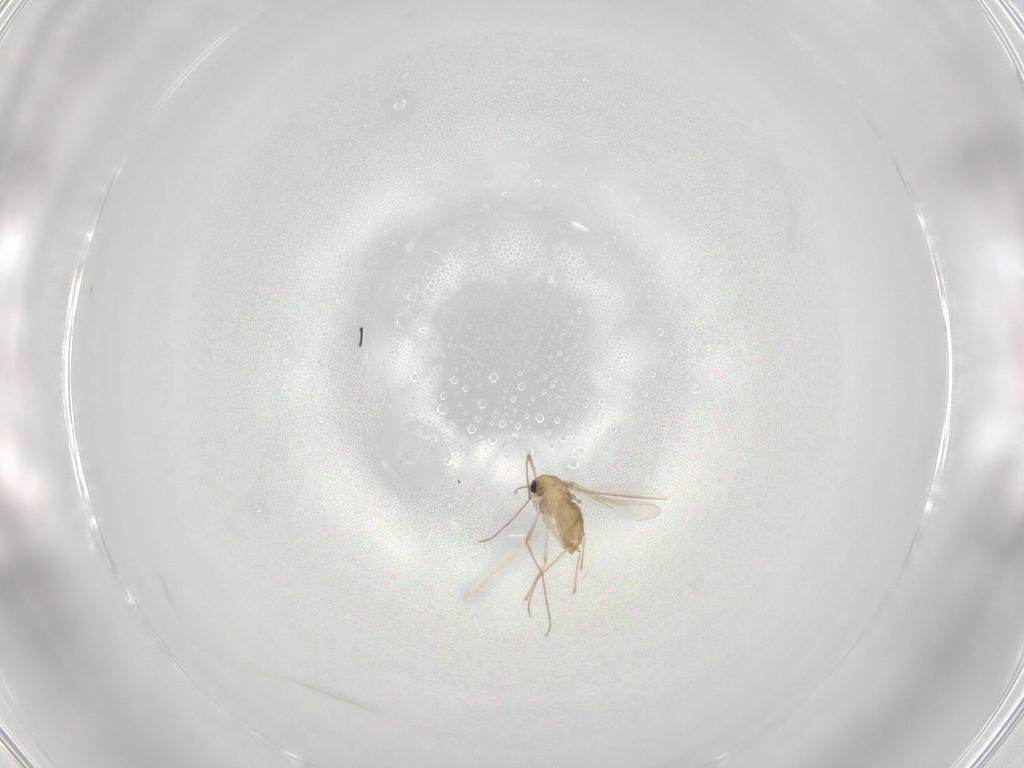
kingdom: Animalia
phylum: Arthropoda
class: Insecta
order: Diptera
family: Chironomidae
